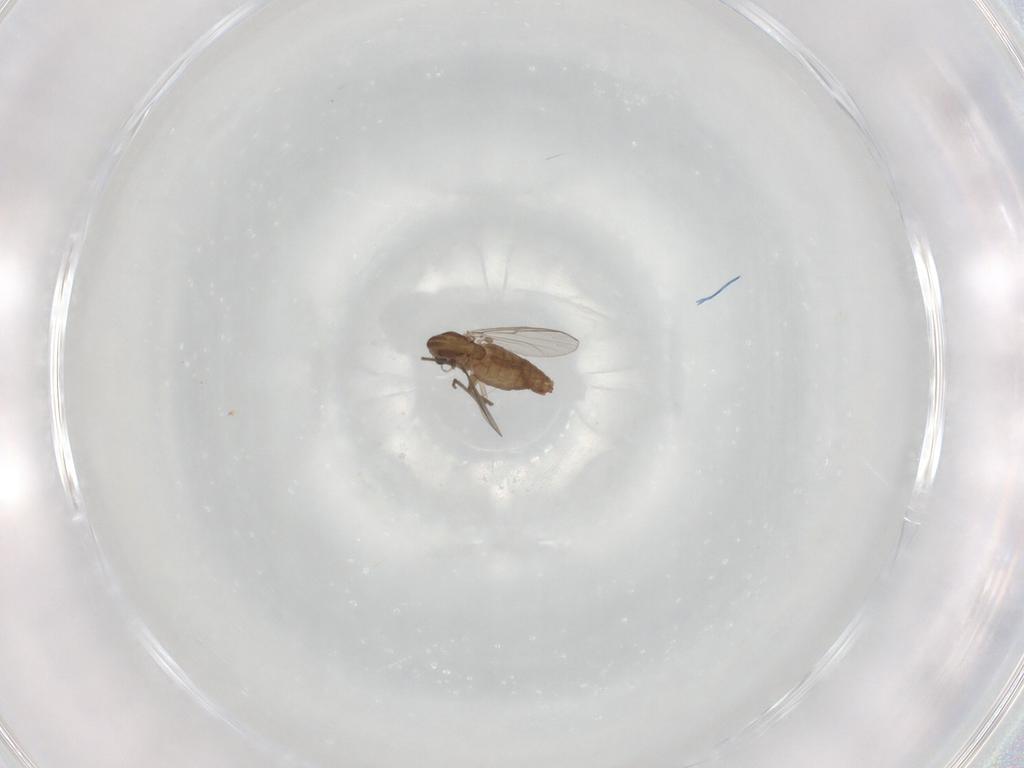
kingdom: Animalia
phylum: Arthropoda
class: Insecta
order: Diptera
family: Chironomidae
